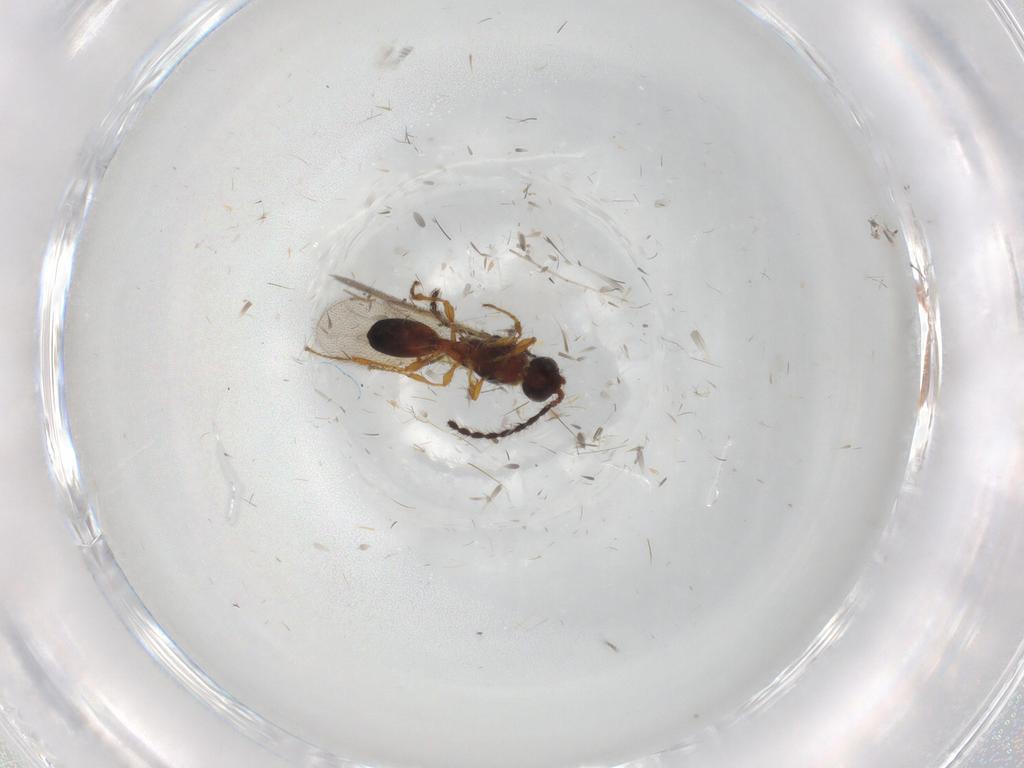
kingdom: Animalia
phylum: Arthropoda
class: Insecta
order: Hymenoptera
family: Diapriidae
